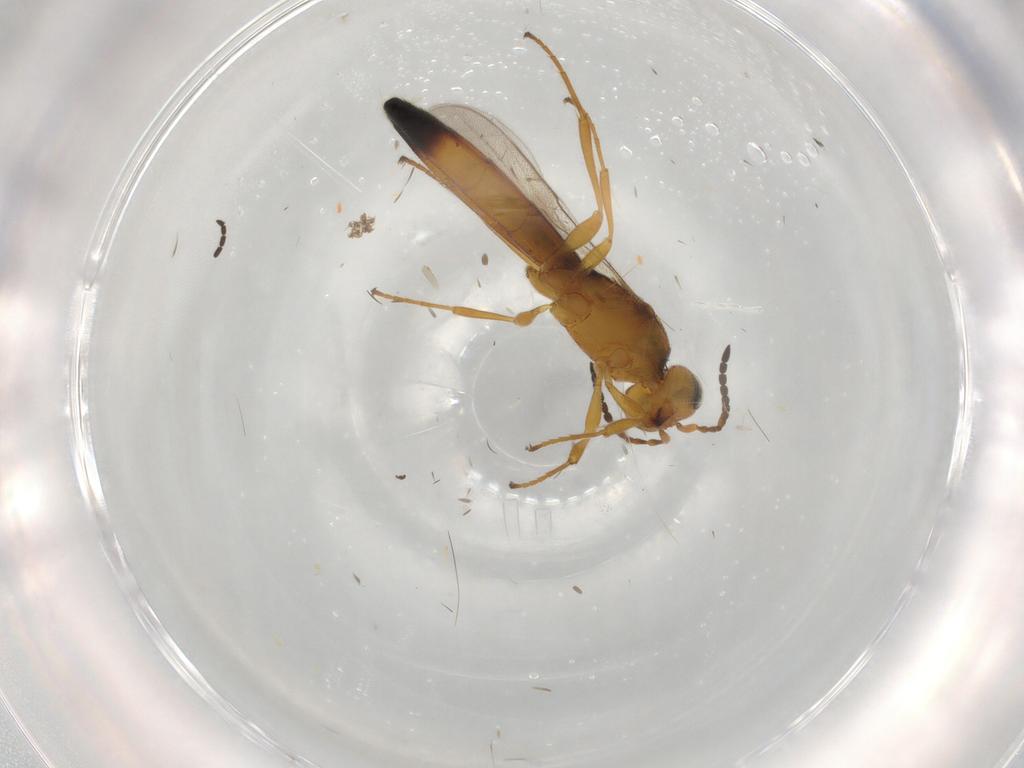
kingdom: Animalia
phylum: Arthropoda
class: Insecta
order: Hymenoptera
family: Scelionidae
